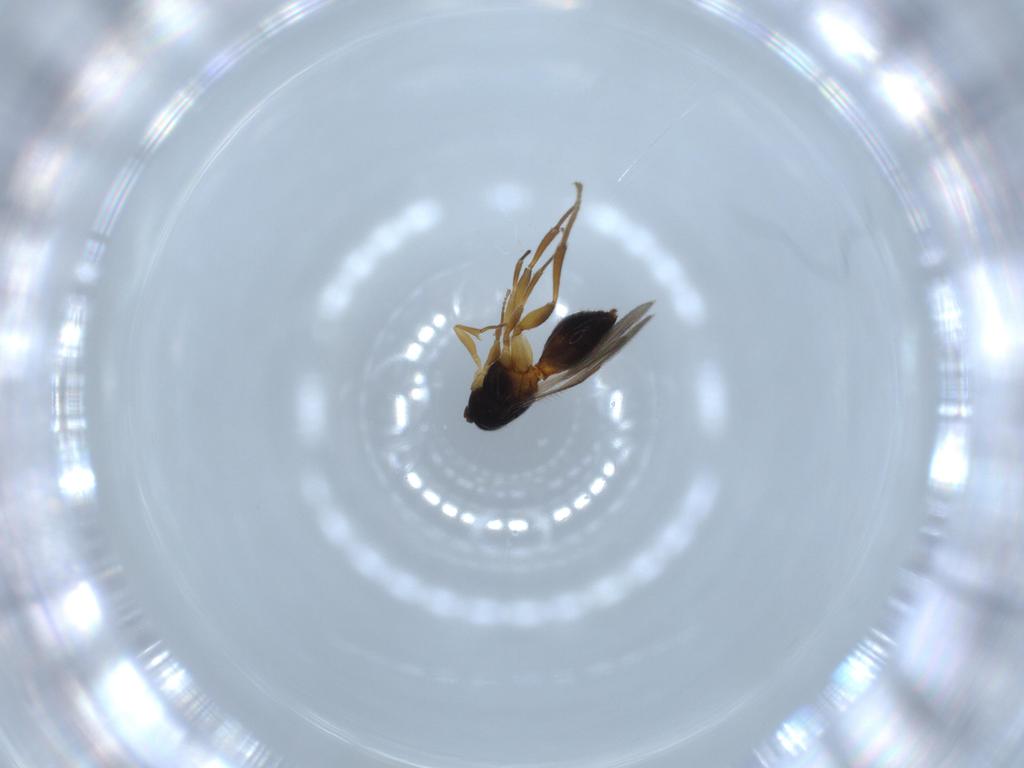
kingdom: Animalia
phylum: Arthropoda
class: Insecta
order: Hymenoptera
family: Megaspilidae
